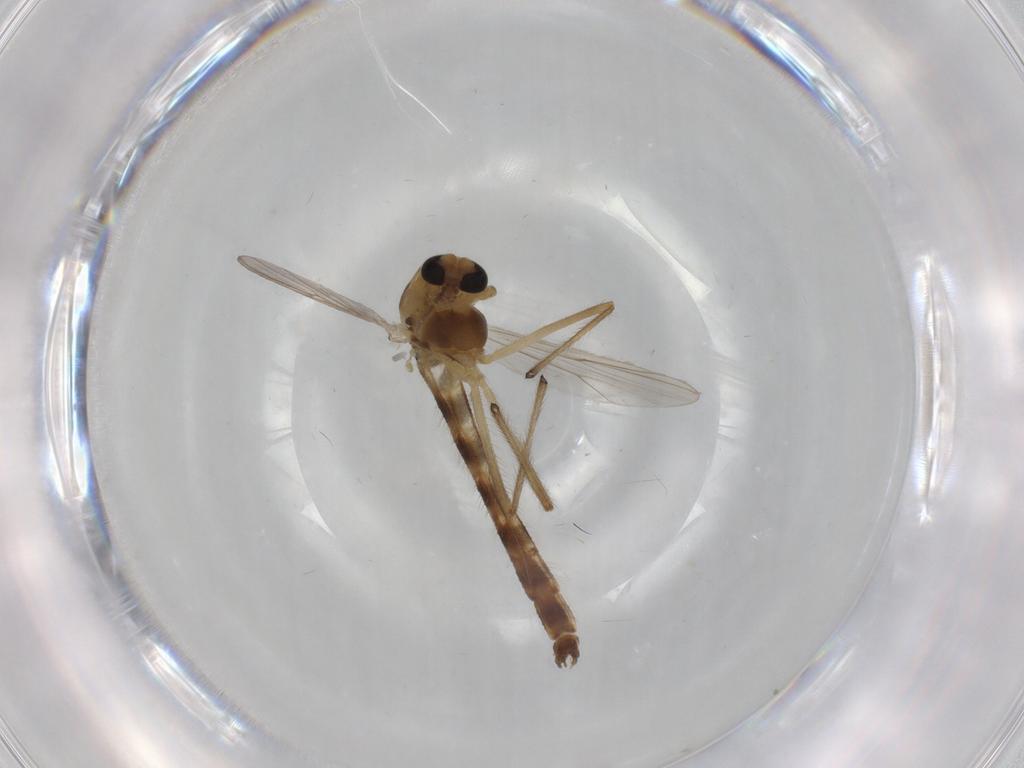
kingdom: Animalia
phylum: Arthropoda
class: Insecta
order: Diptera
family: Chironomidae
